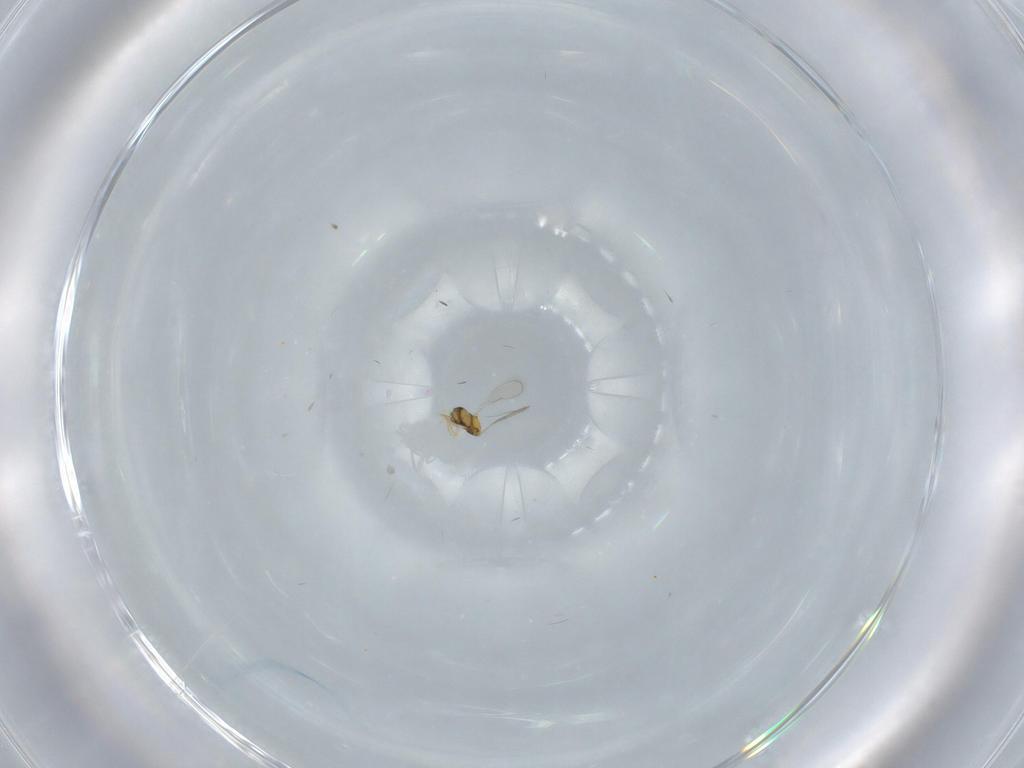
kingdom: Animalia
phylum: Arthropoda
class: Insecta
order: Hymenoptera
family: Aphelinidae
